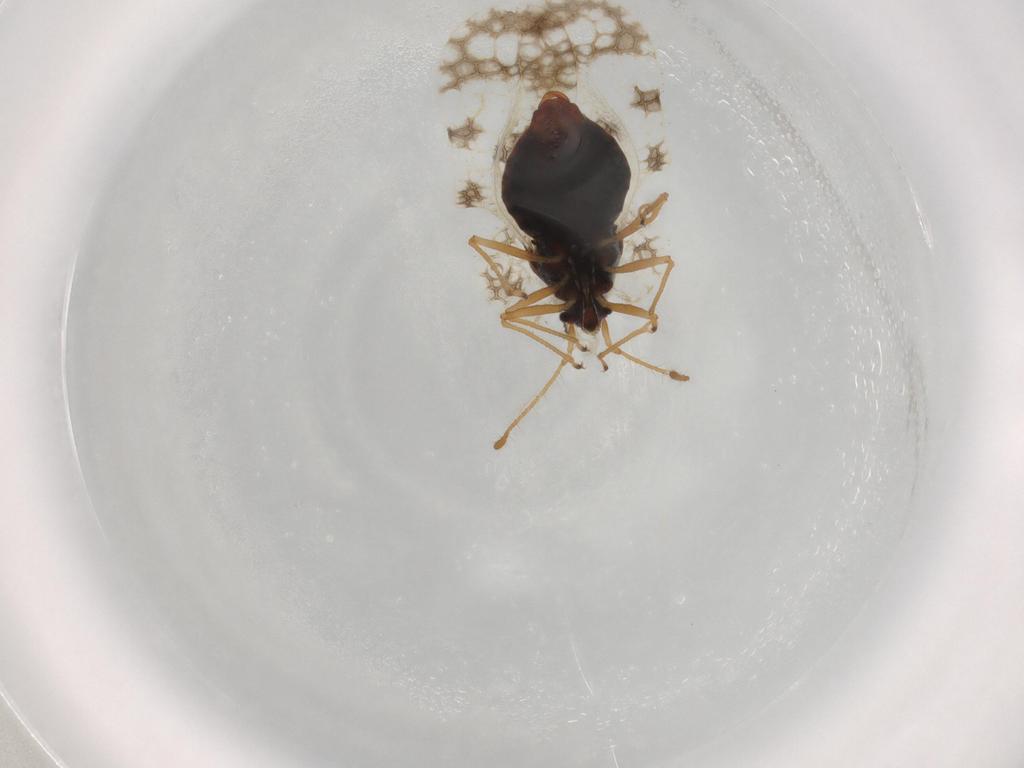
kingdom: Animalia
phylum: Arthropoda
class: Insecta
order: Hemiptera
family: Tingidae
